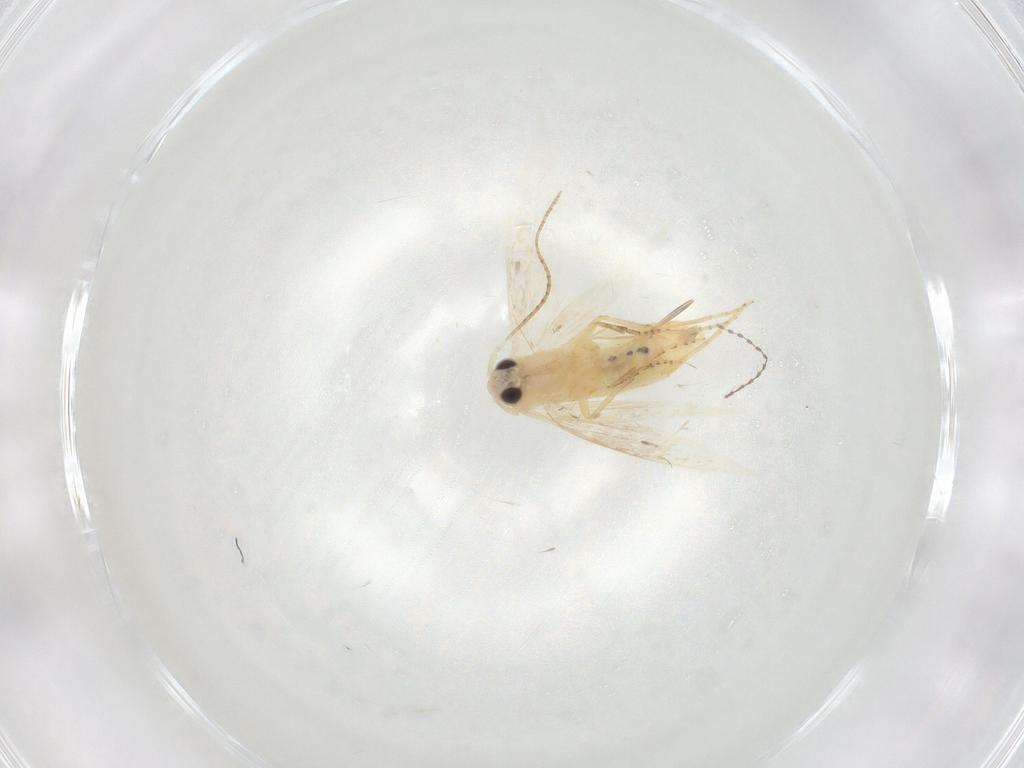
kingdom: Animalia
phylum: Arthropoda
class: Insecta
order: Lepidoptera
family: Depressariidae
